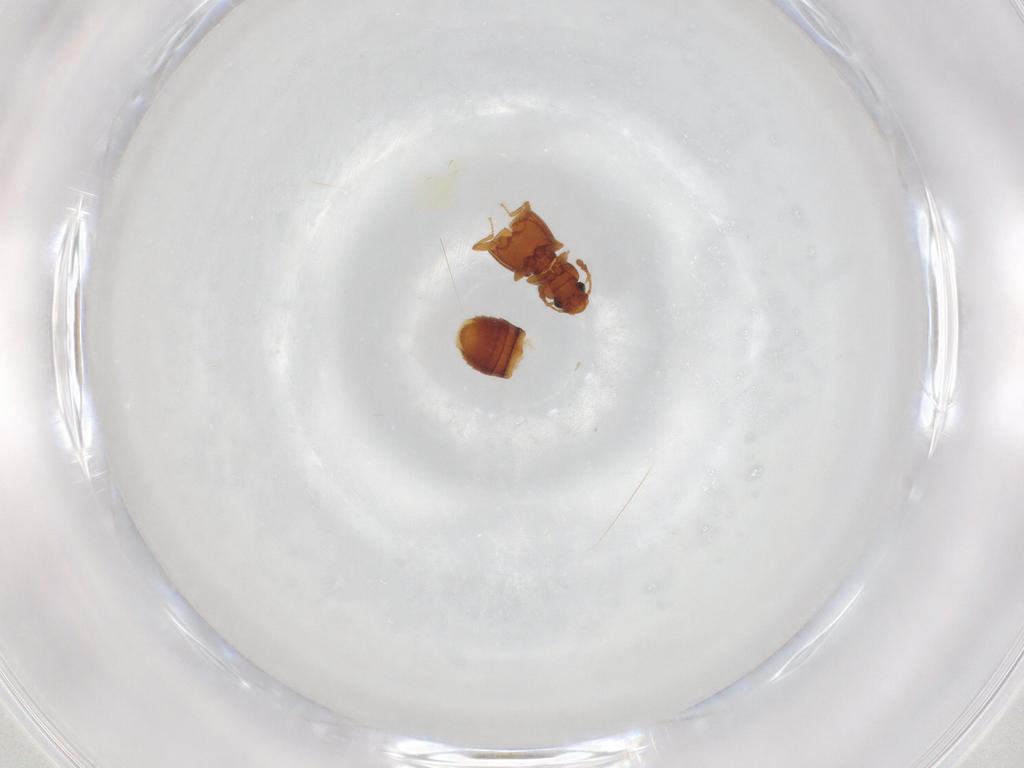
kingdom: Animalia
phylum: Arthropoda
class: Insecta
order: Coleoptera
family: Staphylinidae
